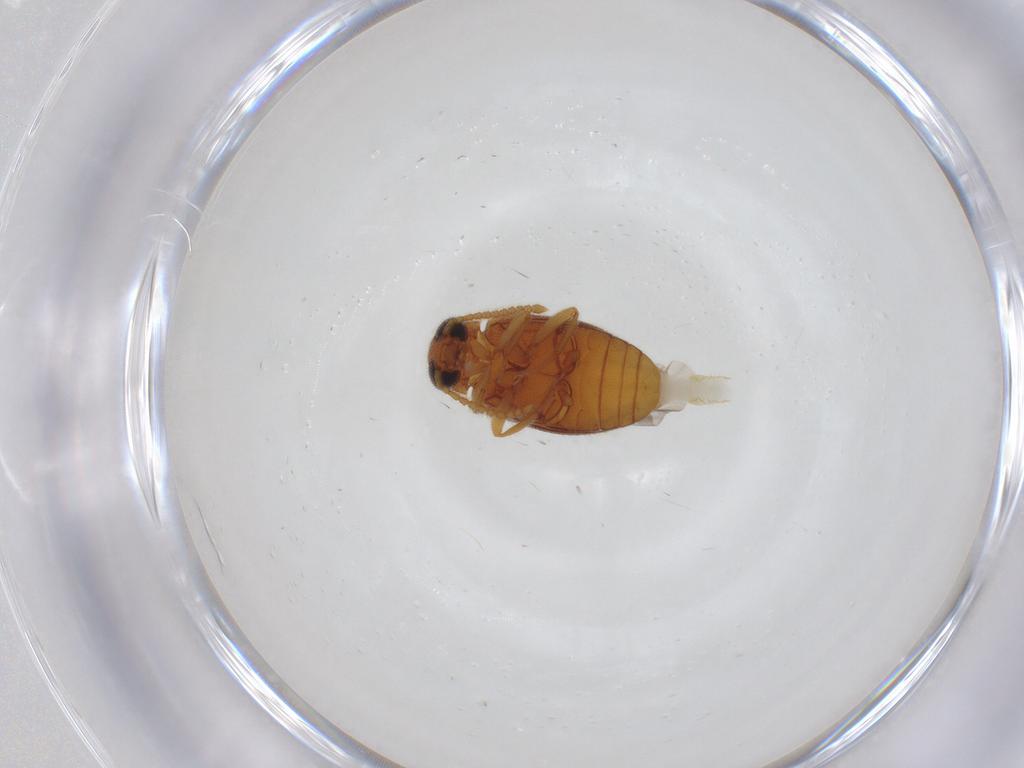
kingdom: Animalia
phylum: Arthropoda
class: Insecta
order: Coleoptera
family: Aderidae
